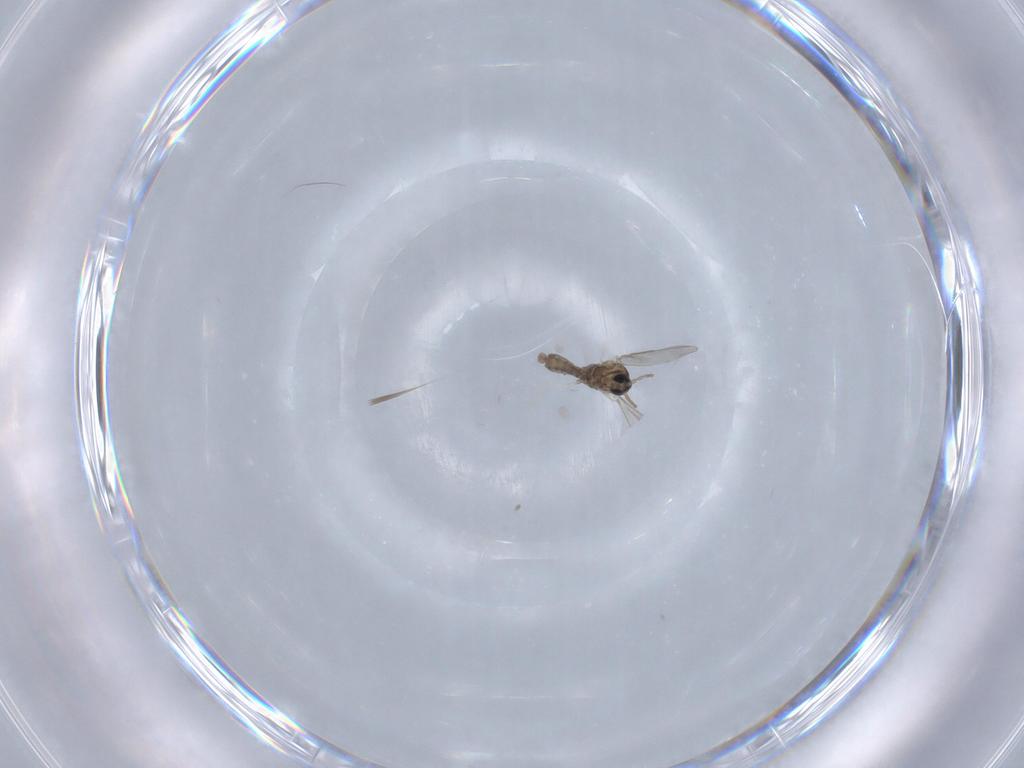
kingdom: Animalia
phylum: Arthropoda
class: Insecta
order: Diptera
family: Cecidomyiidae
